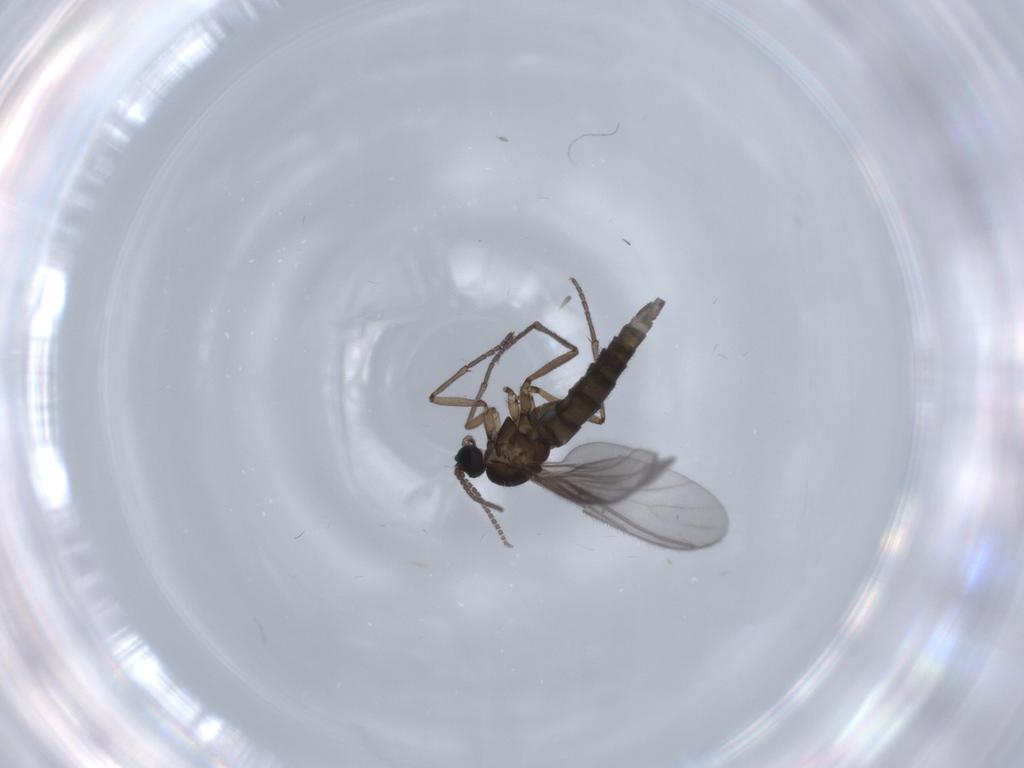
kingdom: Animalia
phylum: Arthropoda
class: Insecta
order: Diptera
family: Sciaridae
